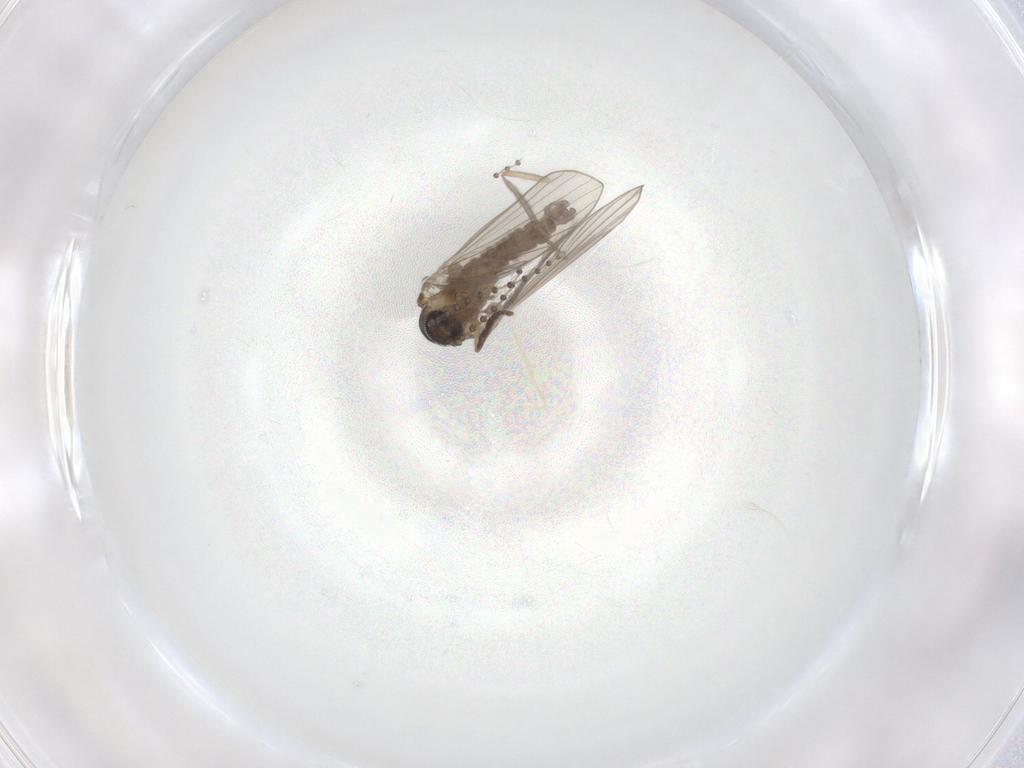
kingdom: Animalia
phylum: Arthropoda
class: Insecta
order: Diptera
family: Psychodidae
